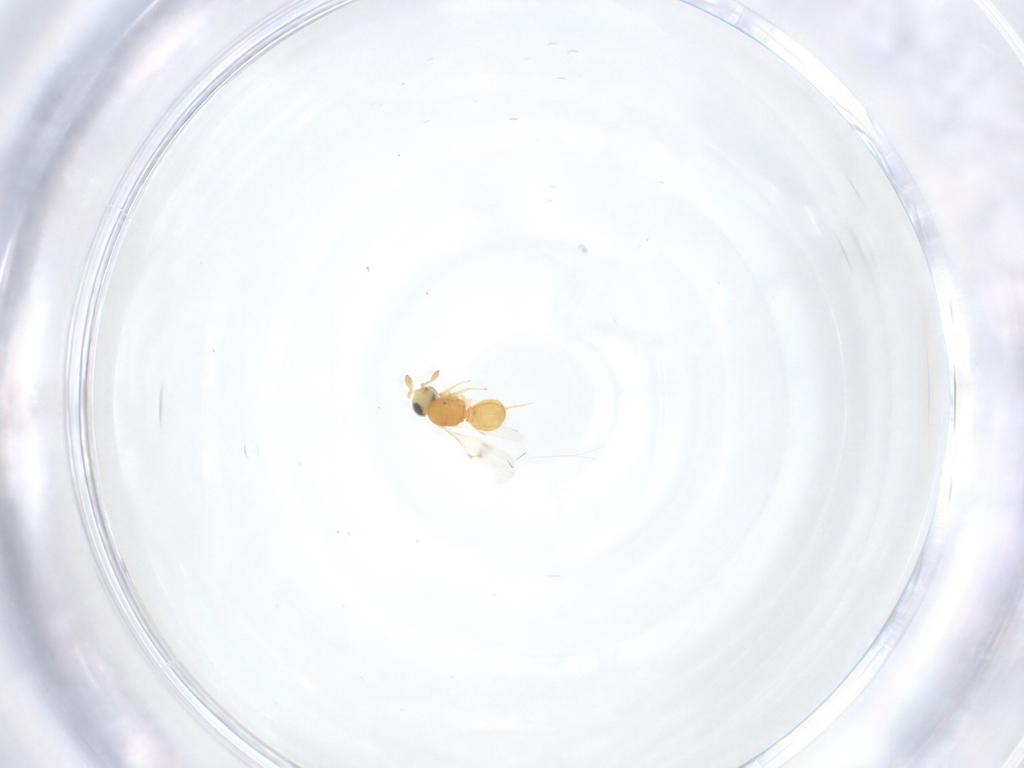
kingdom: Animalia
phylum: Arthropoda
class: Insecta
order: Hymenoptera
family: Scelionidae
